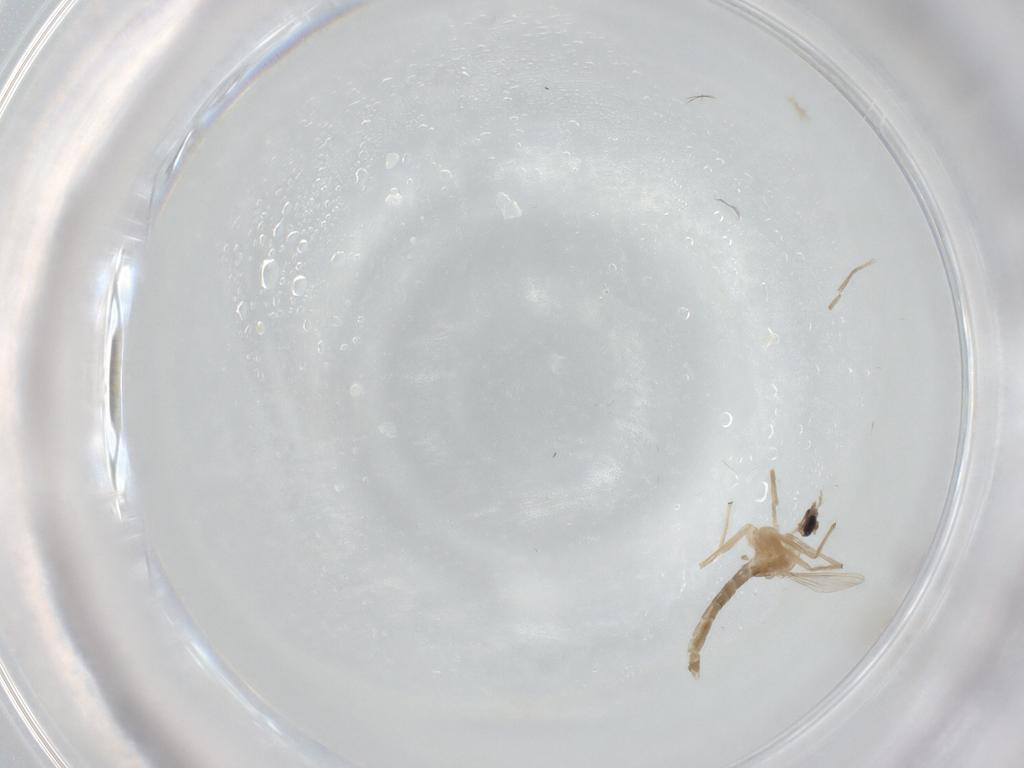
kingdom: Animalia
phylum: Arthropoda
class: Insecta
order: Diptera
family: Chironomidae
